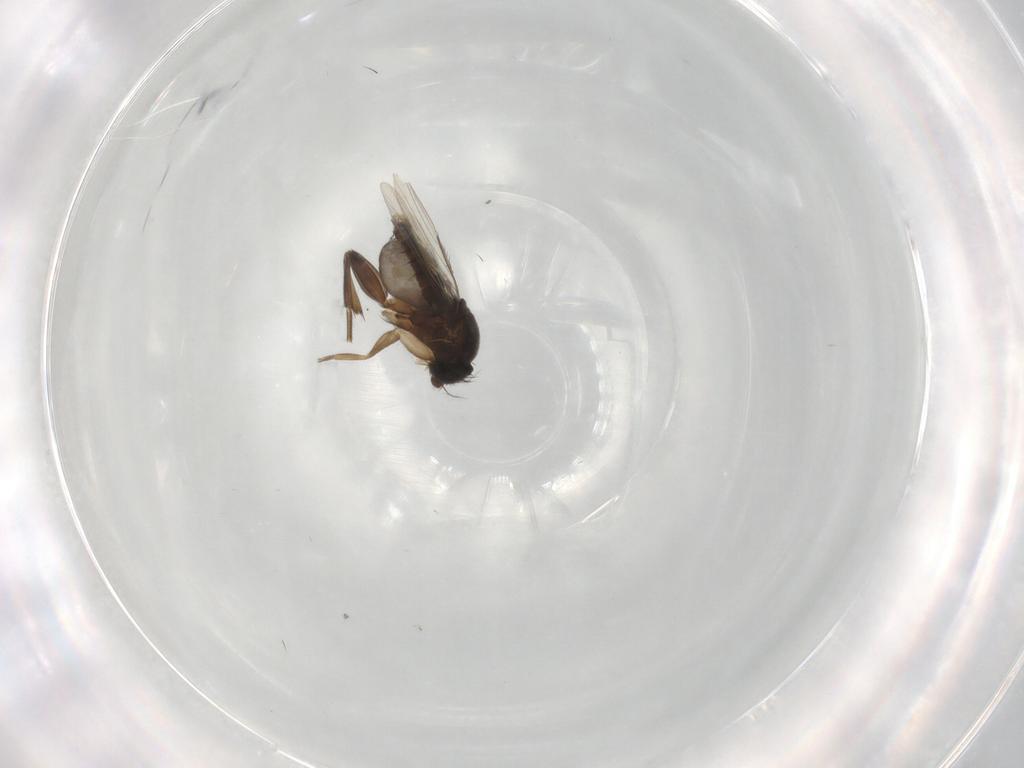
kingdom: Animalia
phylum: Arthropoda
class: Insecta
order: Diptera
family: Phoridae
